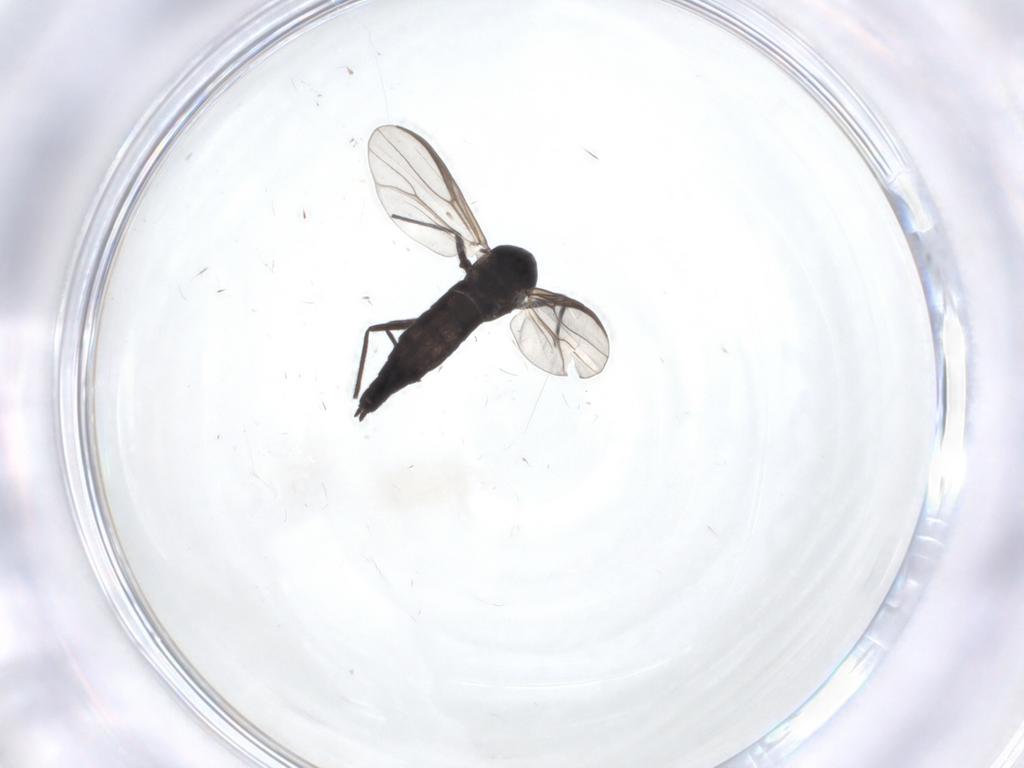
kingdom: Animalia
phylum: Arthropoda
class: Insecta
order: Diptera
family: Chironomidae
